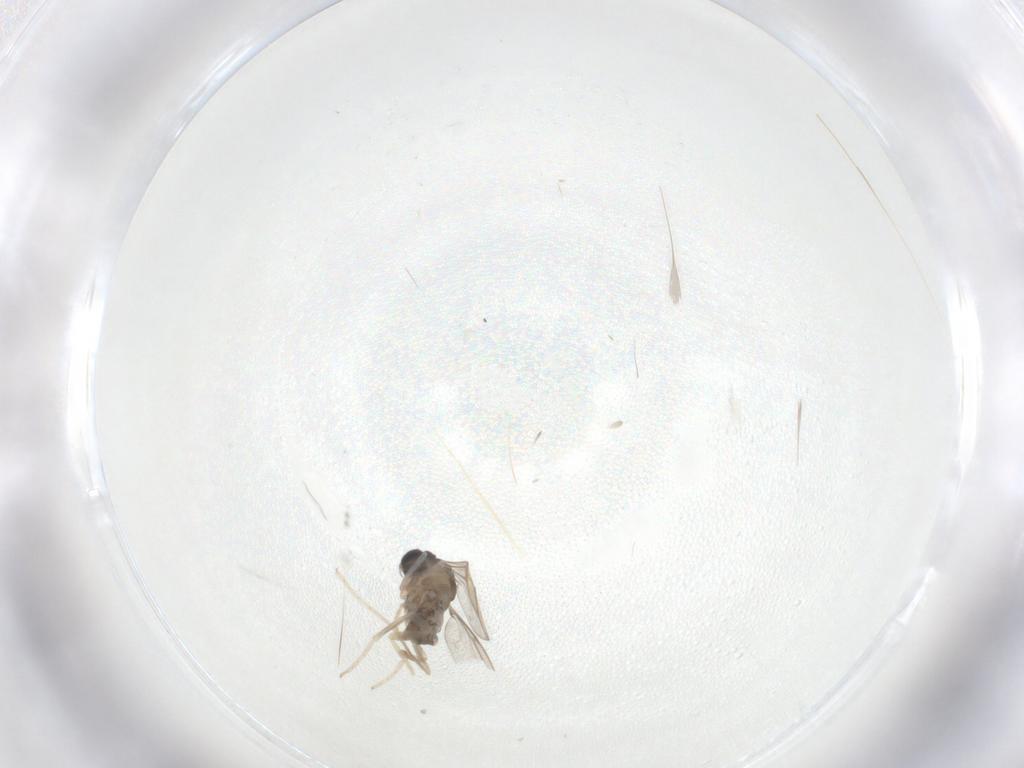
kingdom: Animalia
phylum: Arthropoda
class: Insecta
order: Diptera
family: Cecidomyiidae
